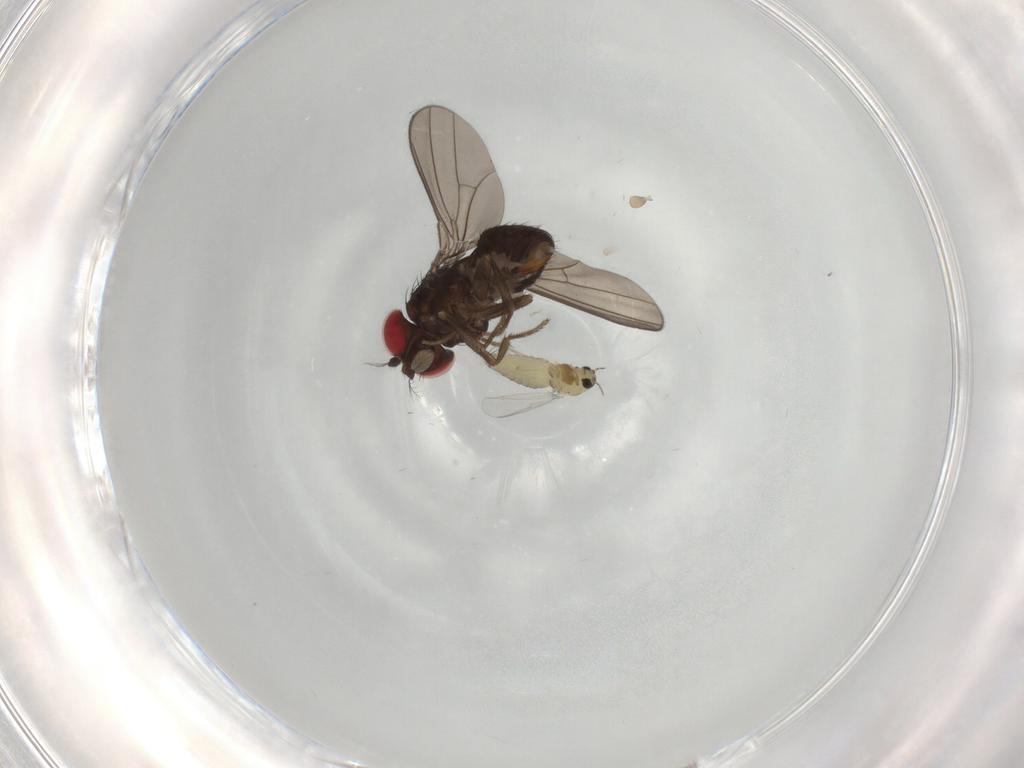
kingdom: Animalia
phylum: Arthropoda
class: Insecta
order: Diptera
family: Drosophilidae
